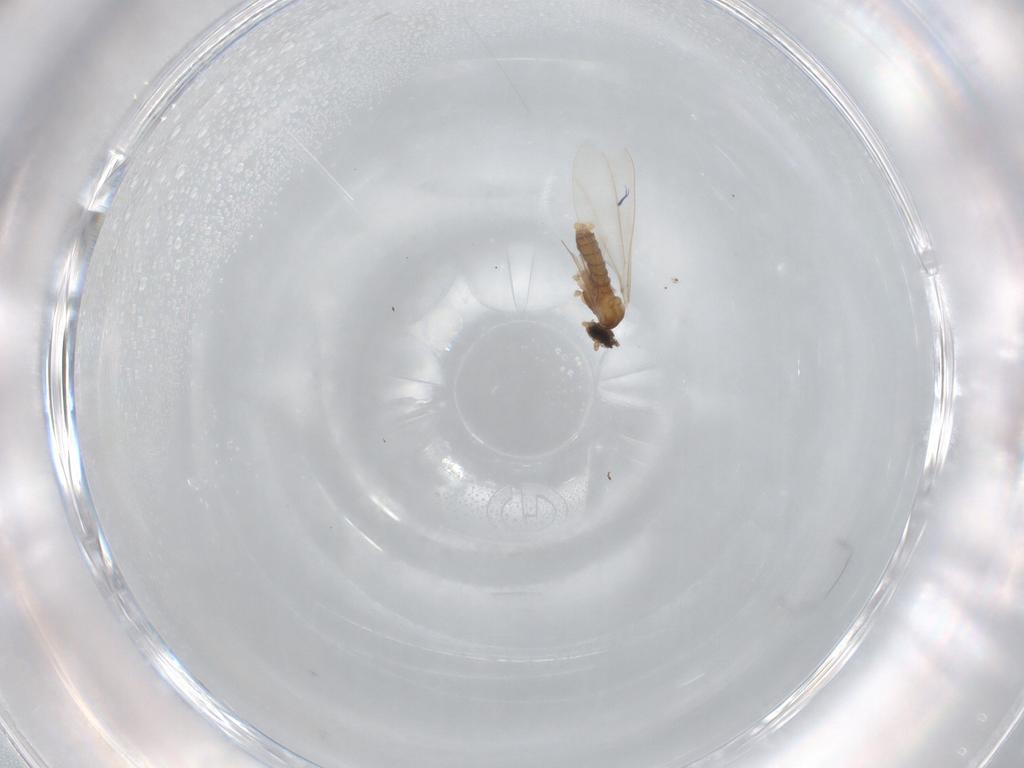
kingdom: Animalia
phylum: Arthropoda
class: Insecta
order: Diptera
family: Cecidomyiidae
